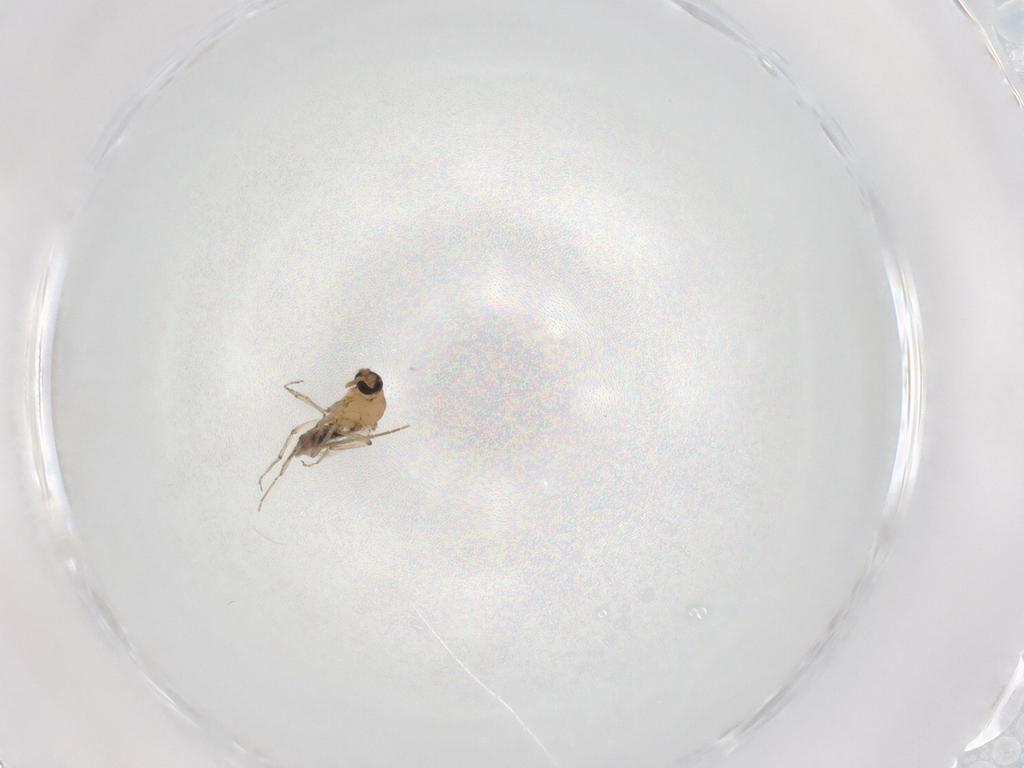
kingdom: Animalia
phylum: Arthropoda
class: Insecta
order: Diptera
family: Ceratopogonidae
